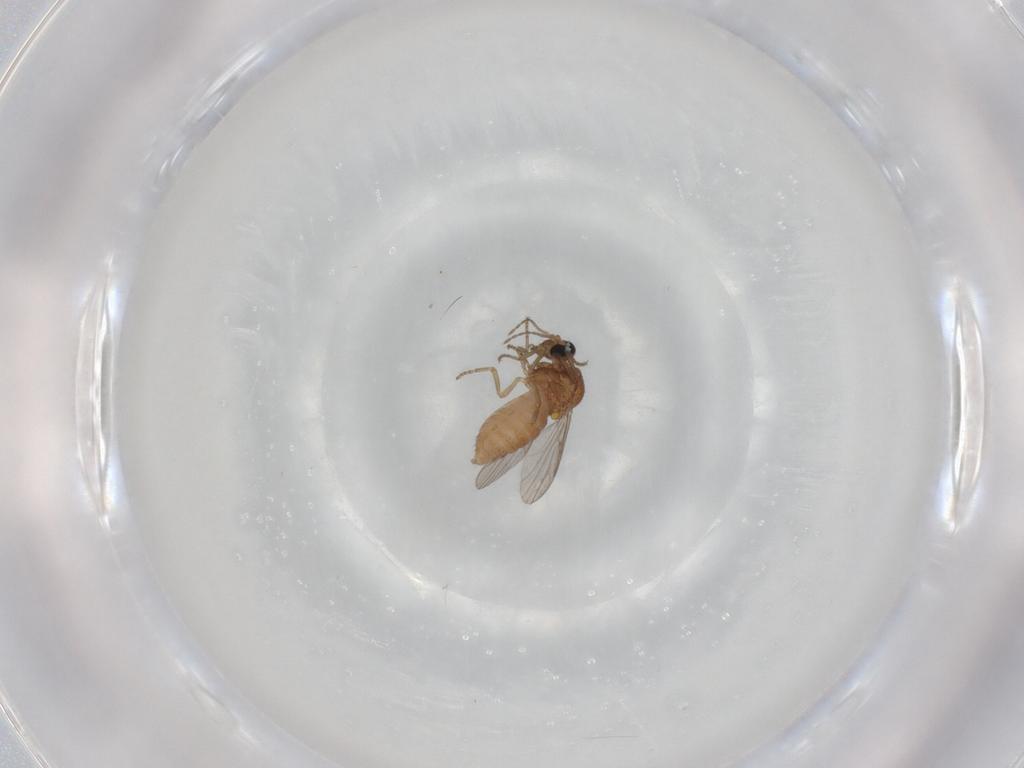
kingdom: Animalia
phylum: Arthropoda
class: Insecta
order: Diptera
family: Ceratopogonidae
